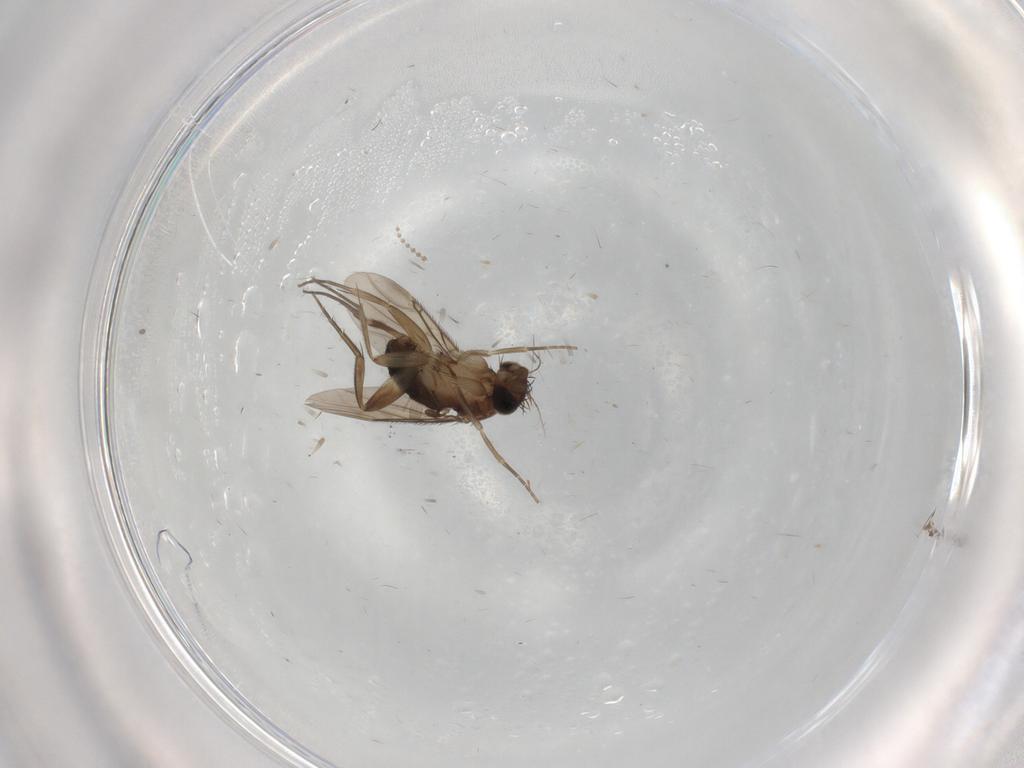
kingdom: Animalia
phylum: Arthropoda
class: Insecta
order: Diptera
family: Phoridae
